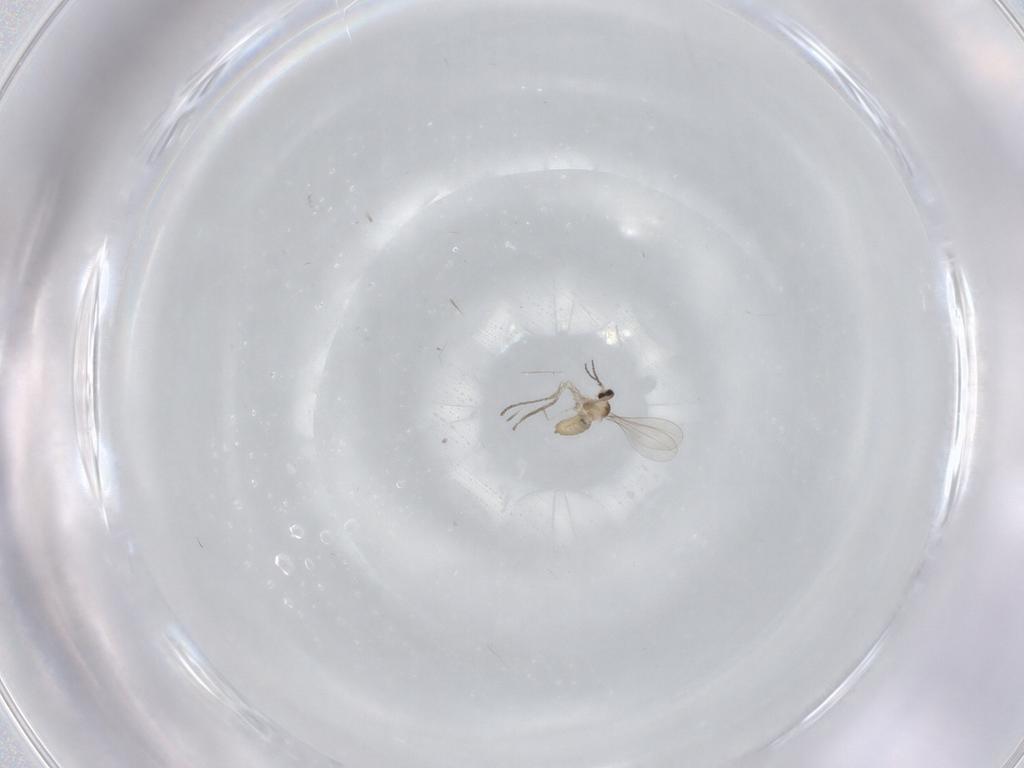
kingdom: Animalia
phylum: Arthropoda
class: Insecta
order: Diptera
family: Cecidomyiidae
